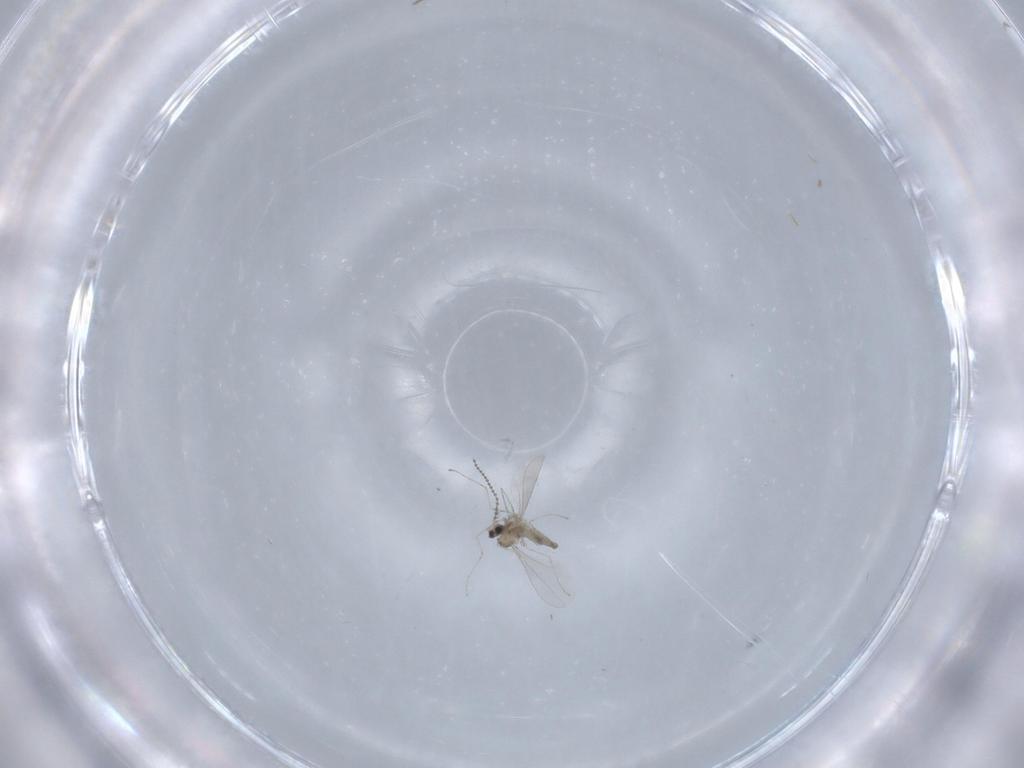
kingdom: Animalia
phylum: Arthropoda
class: Insecta
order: Diptera
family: Cecidomyiidae
